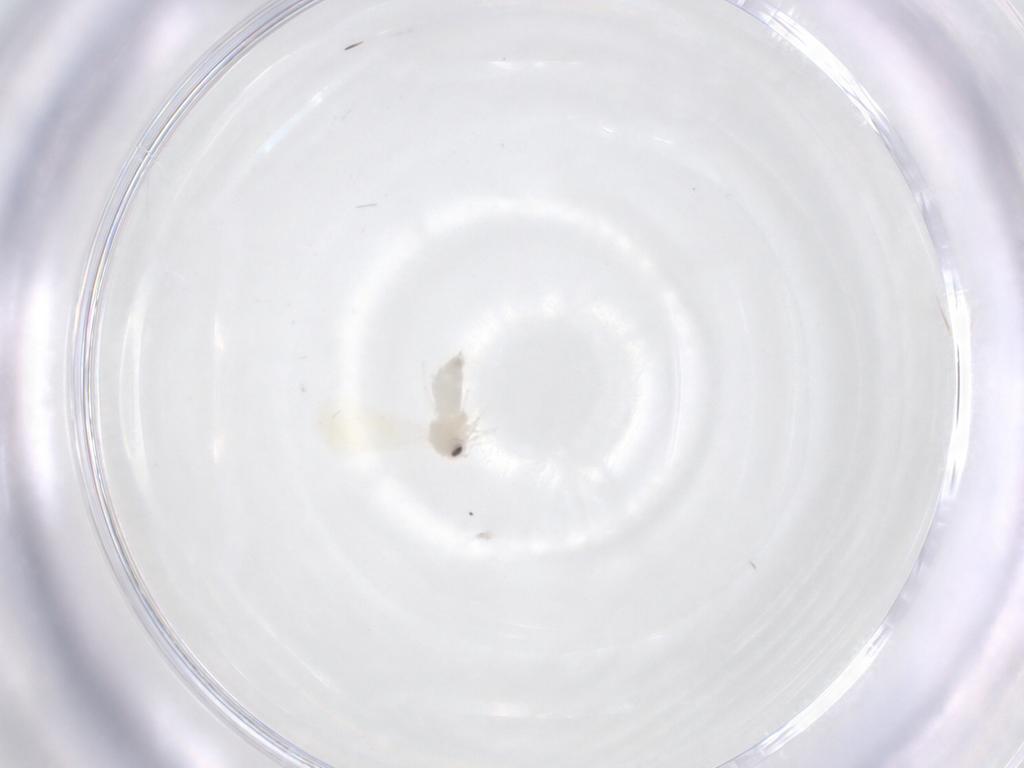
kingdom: Animalia
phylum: Arthropoda
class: Insecta
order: Hemiptera
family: Aleyrodidae
